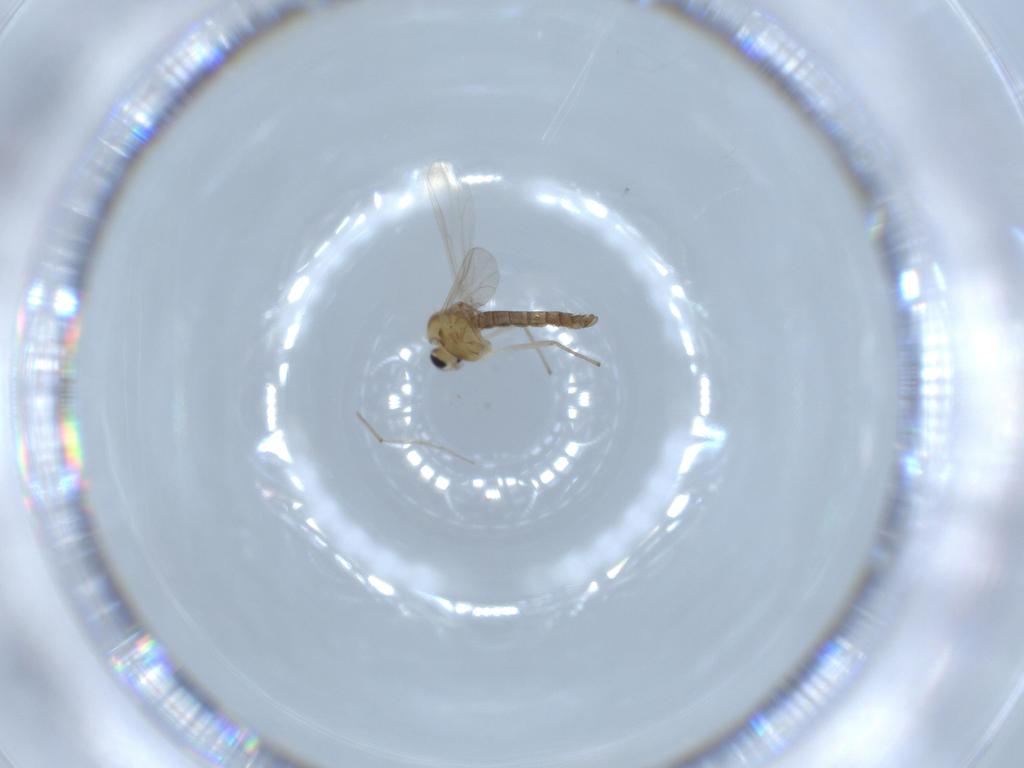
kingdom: Animalia
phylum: Arthropoda
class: Insecta
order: Diptera
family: Chironomidae
